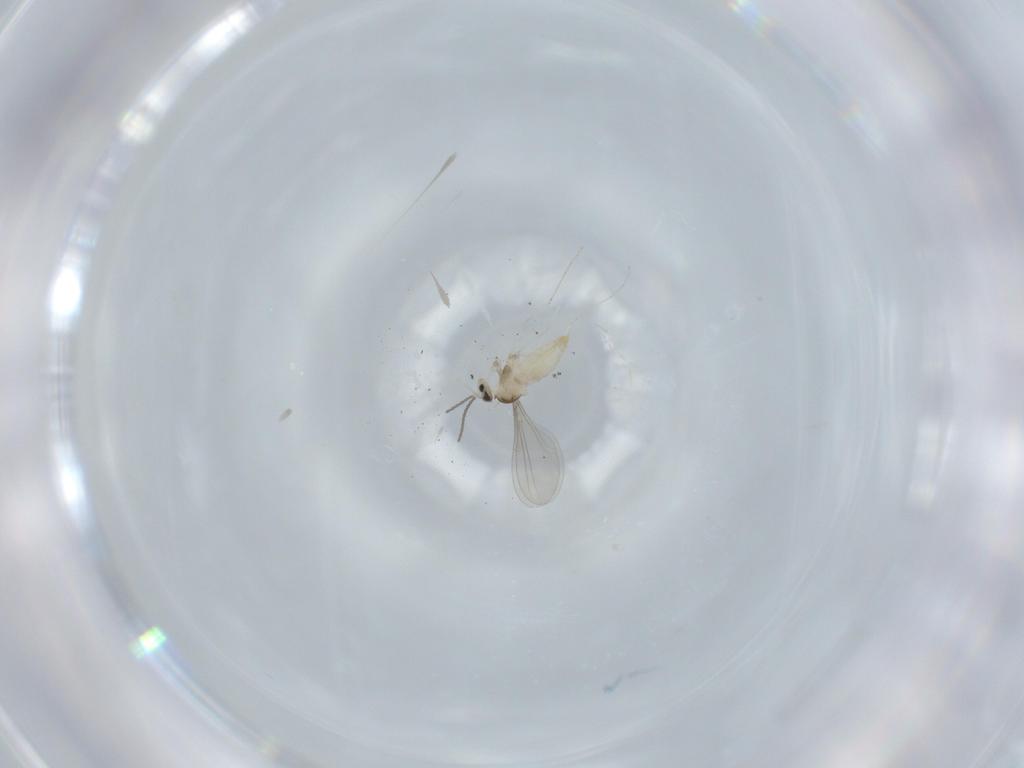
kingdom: Animalia
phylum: Arthropoda
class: Insecta
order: Diptera
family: Cecidomyiidae
